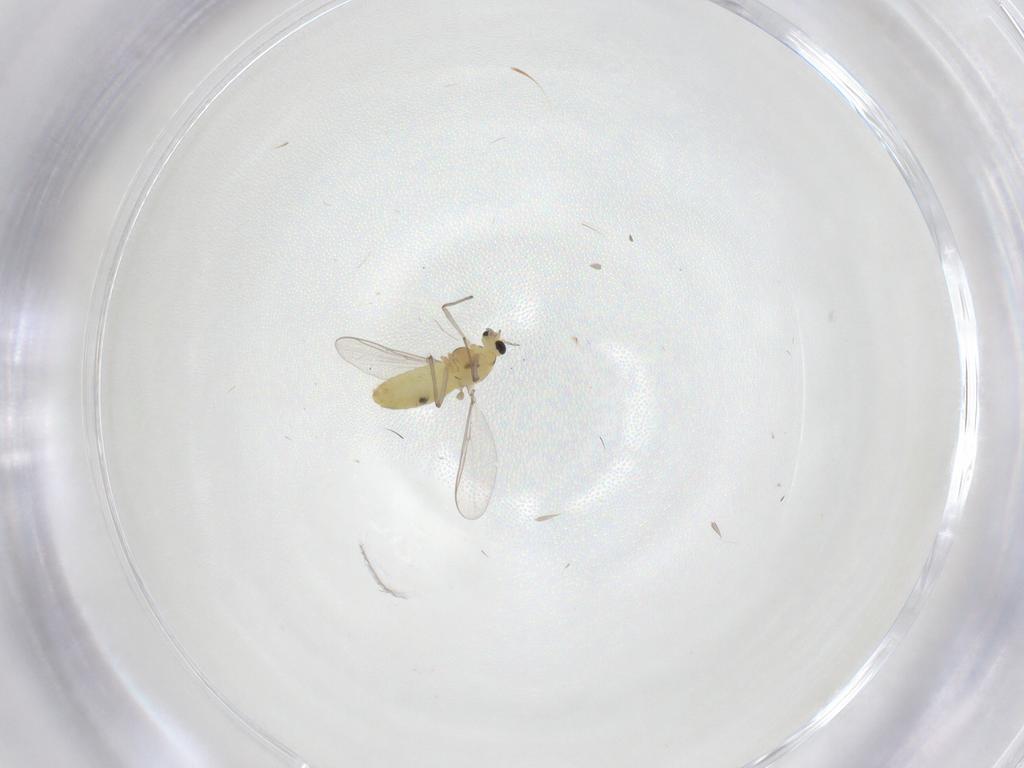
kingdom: Animalia
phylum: Arthropoda
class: Insecta
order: Diptera
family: Chironomidae
